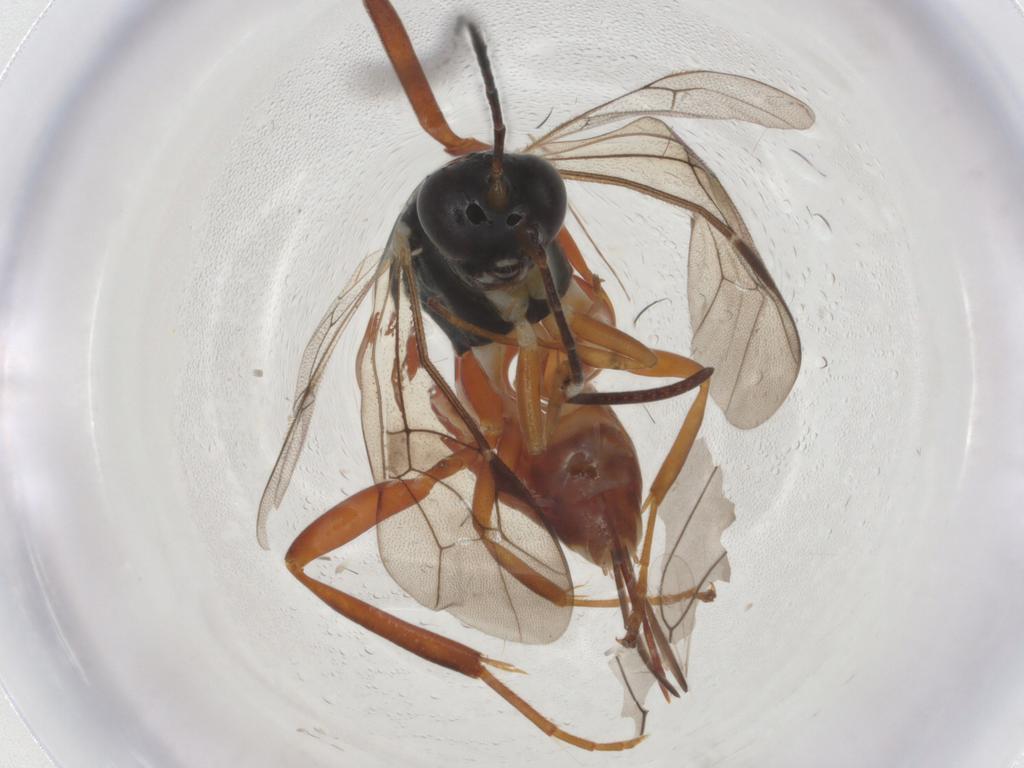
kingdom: Animalia
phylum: Arthropoda
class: Insecta
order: Hymenoptera
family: Ichneumonidae
